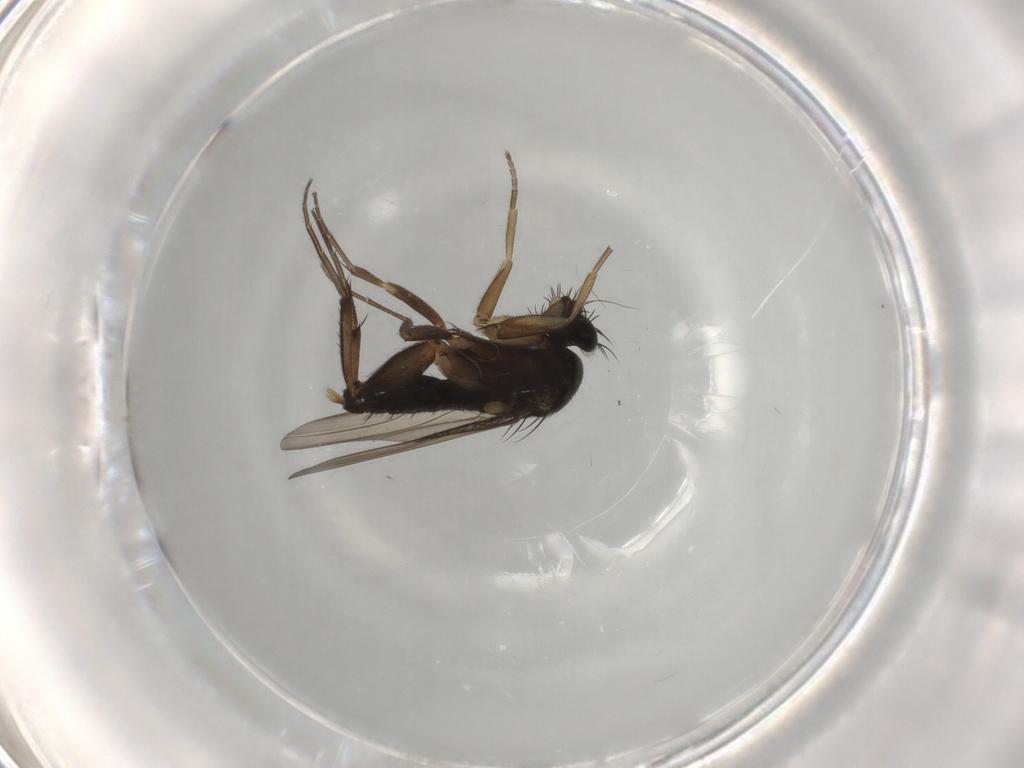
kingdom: Animalia
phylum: Arthropoda
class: Insecta
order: Diptera
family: Phoridae
